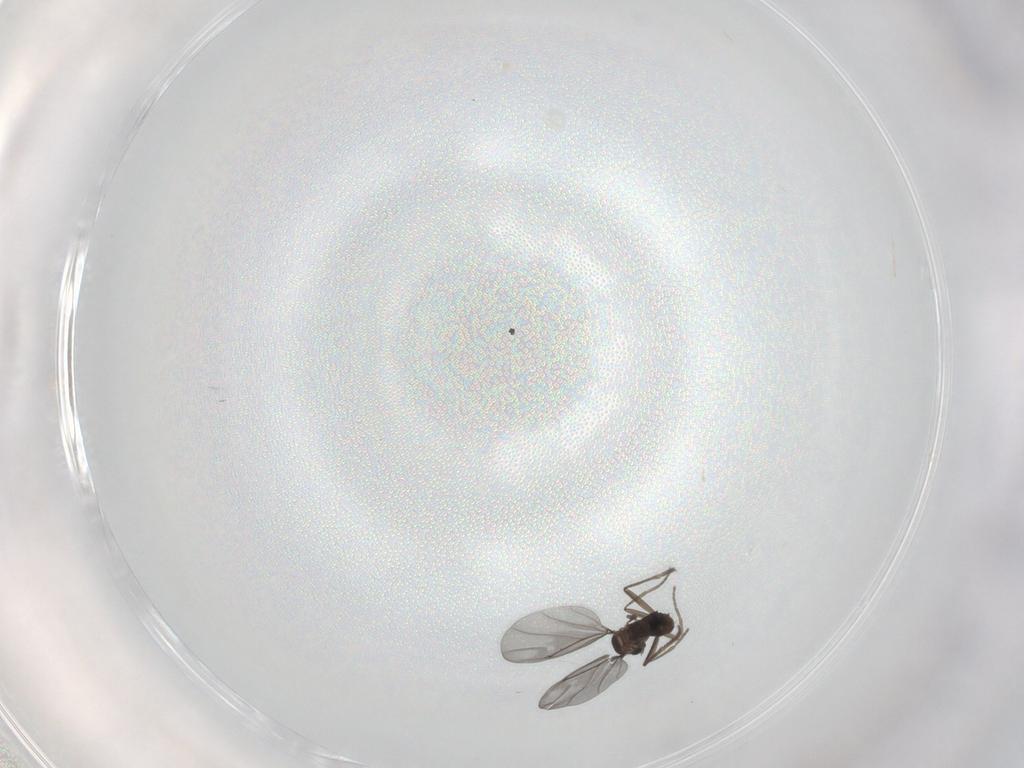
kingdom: Animalia
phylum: Arthropoda
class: Insecta
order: Diptera
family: Phoridae
